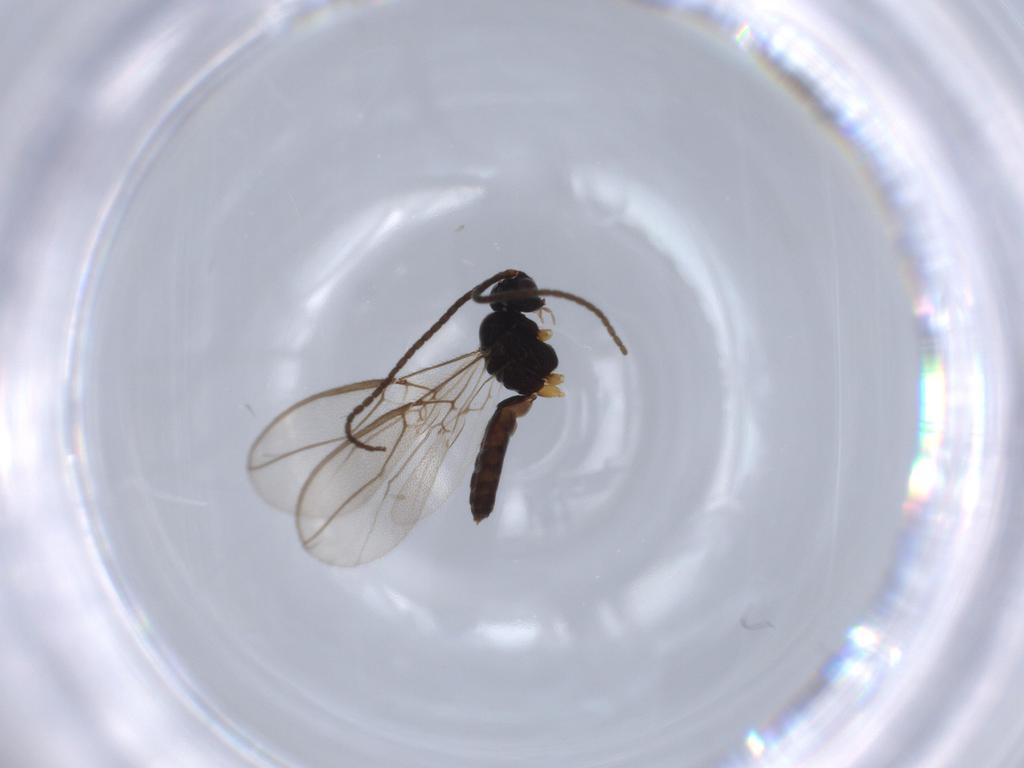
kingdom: Animalia
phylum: Arthropoda
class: Insecta
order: Hymenoptera
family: Braconidae
